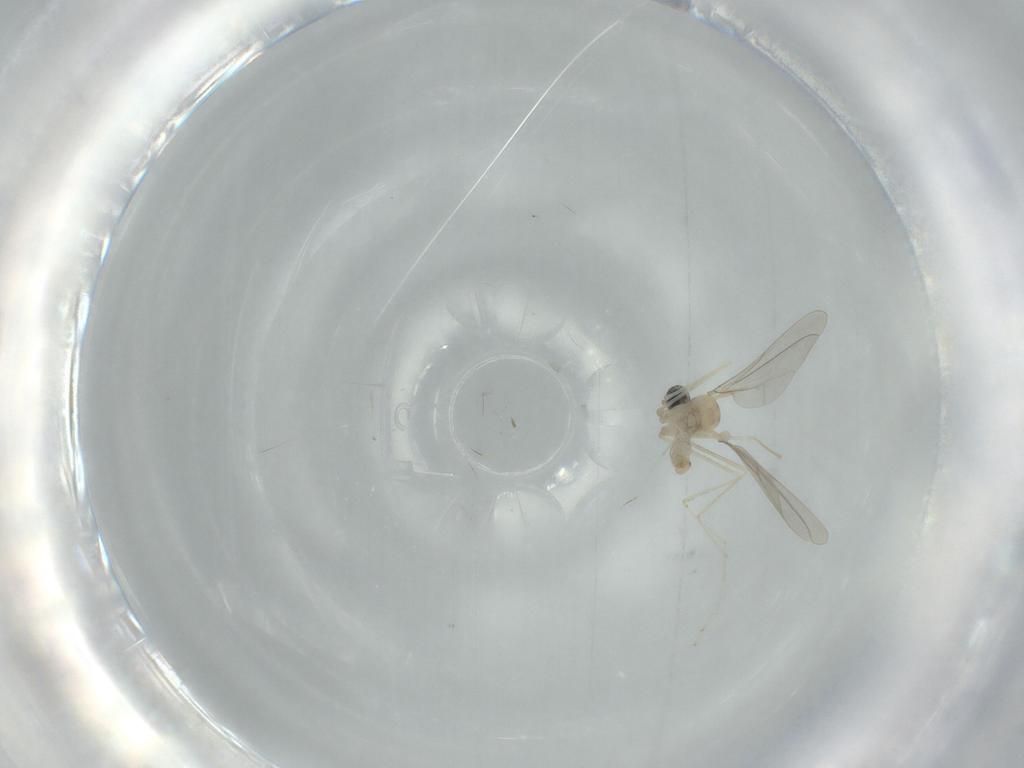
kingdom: Animalia
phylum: Arthropoda
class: Insecta
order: Diptera
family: Cecidomyiidae
